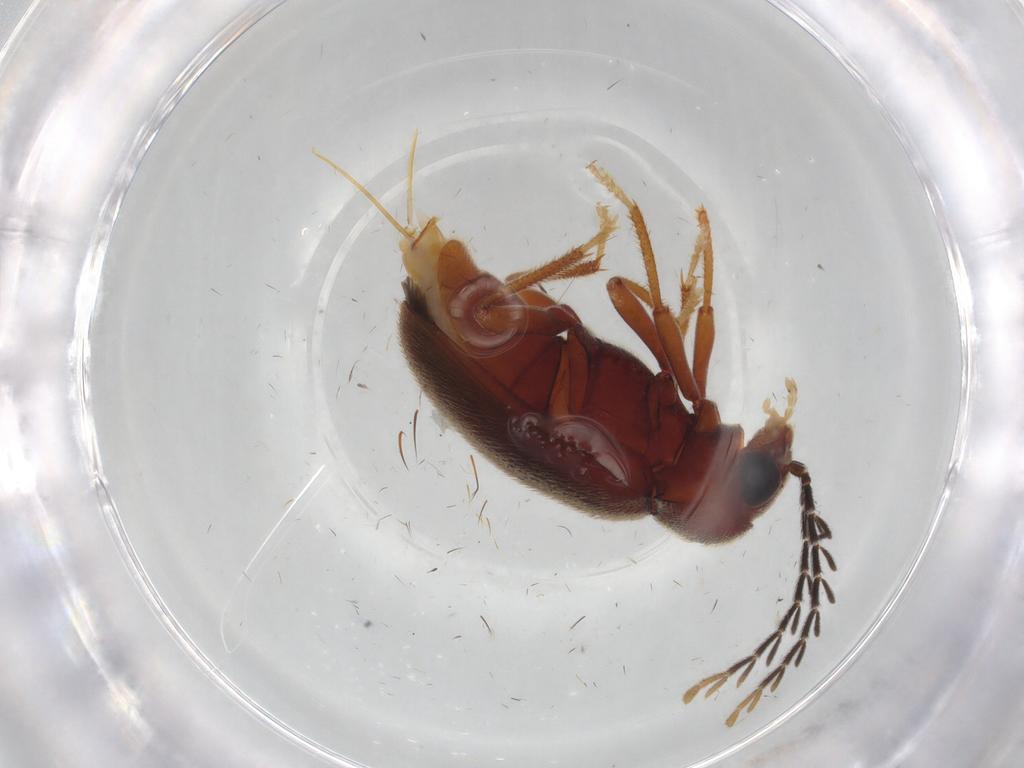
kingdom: Animalia
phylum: Arthropoda
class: Insecta
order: Coleoptera
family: Ptilodactylidae
